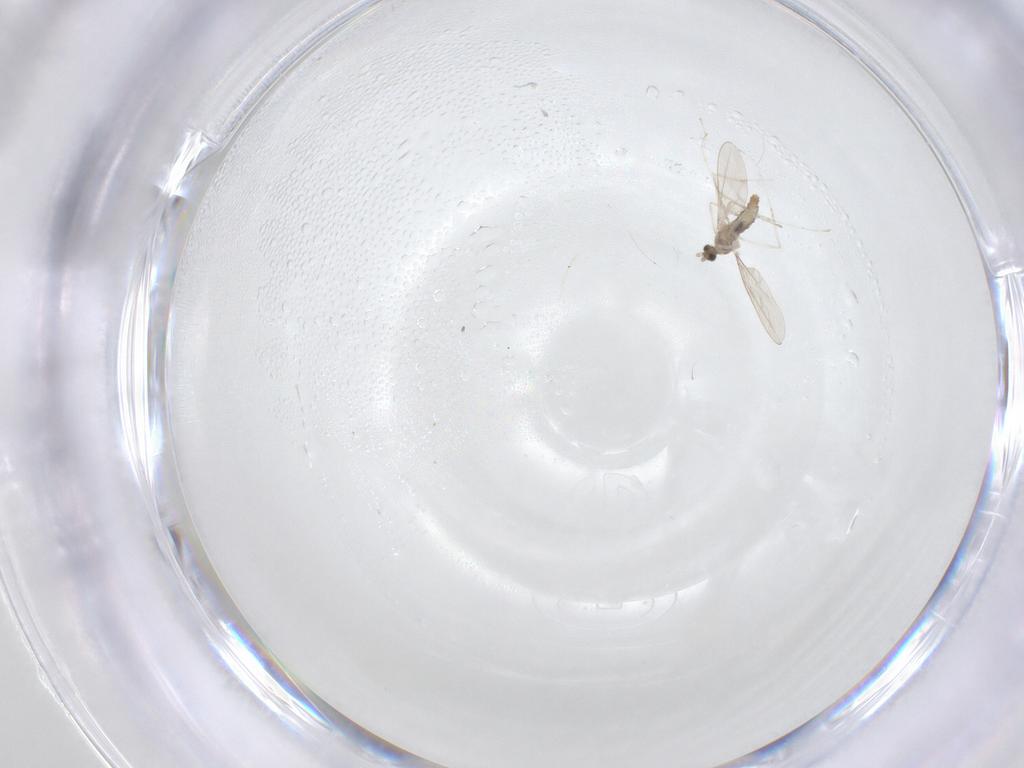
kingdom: Animalia
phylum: Arthropoda
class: Insecta
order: Diptera
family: Cecidomyiidae
